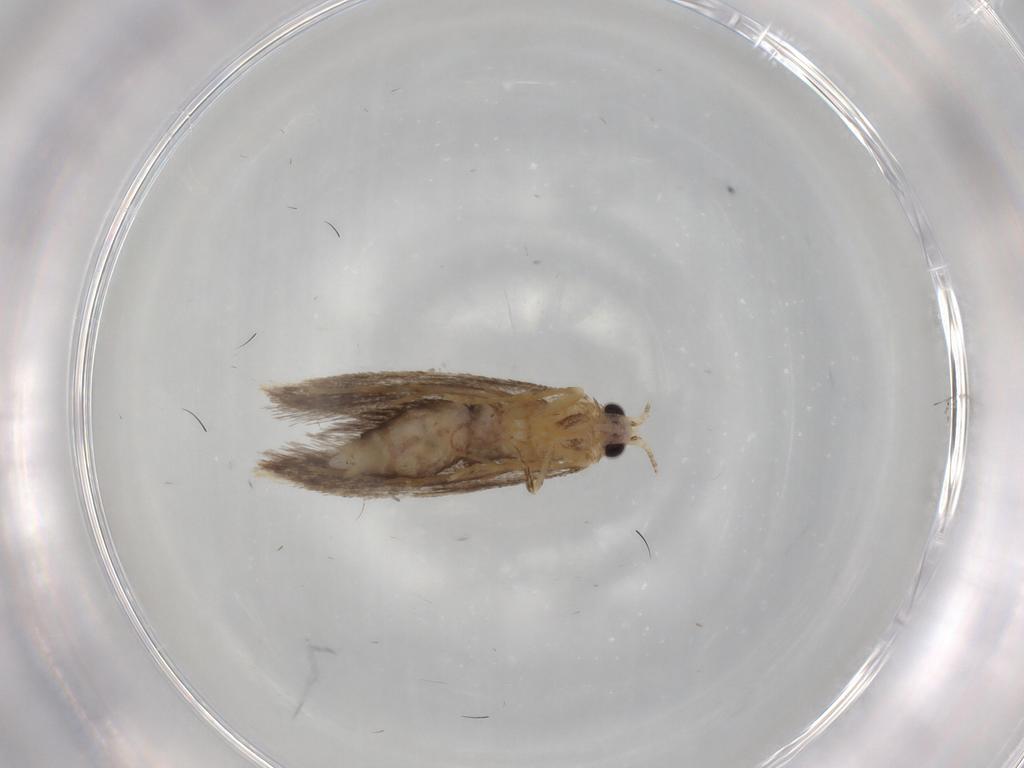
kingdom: Animalia
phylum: Arthropoda
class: Insecta
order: Lepidoptera
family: Nepticulidae
